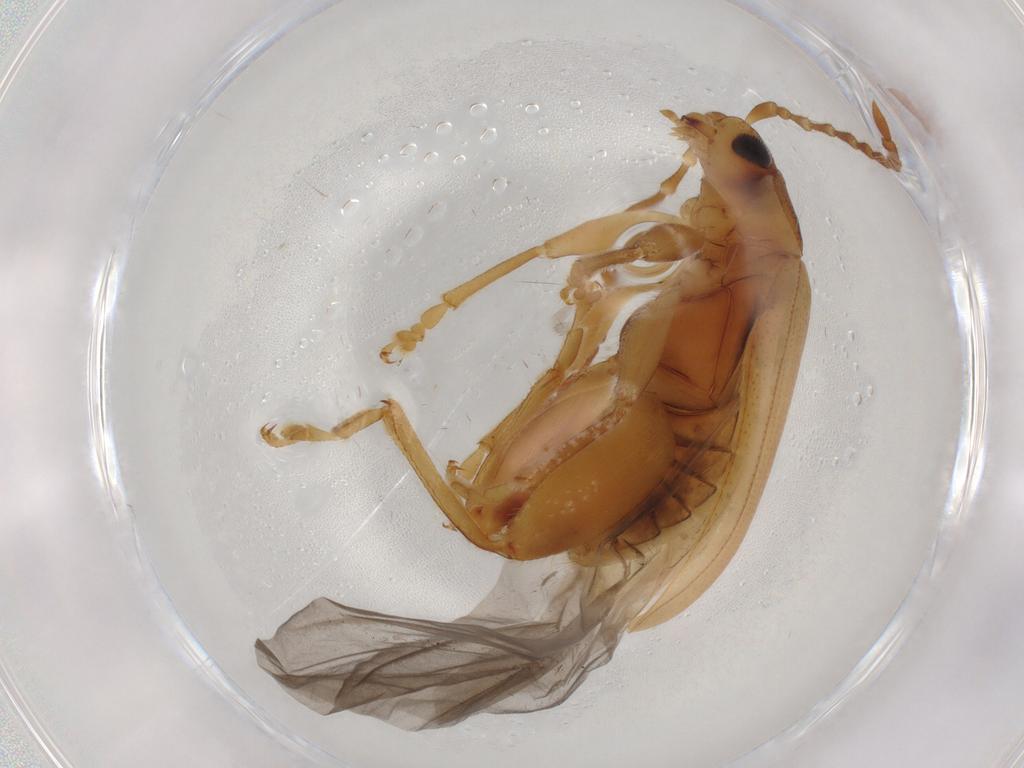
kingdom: Animalia
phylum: Arthropoda
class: Insecta
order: Coleoptera
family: Chrysomelidae
